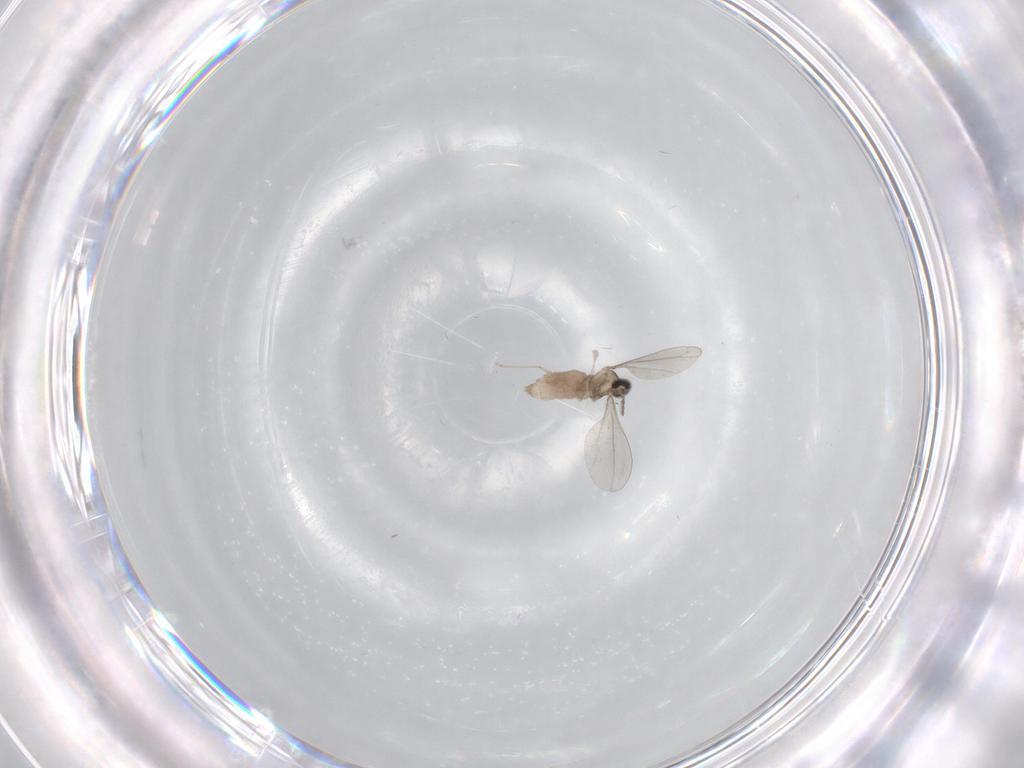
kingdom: Animalia
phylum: Arthropoda
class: Insecta
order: Diptera
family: Cecidomyiidae
